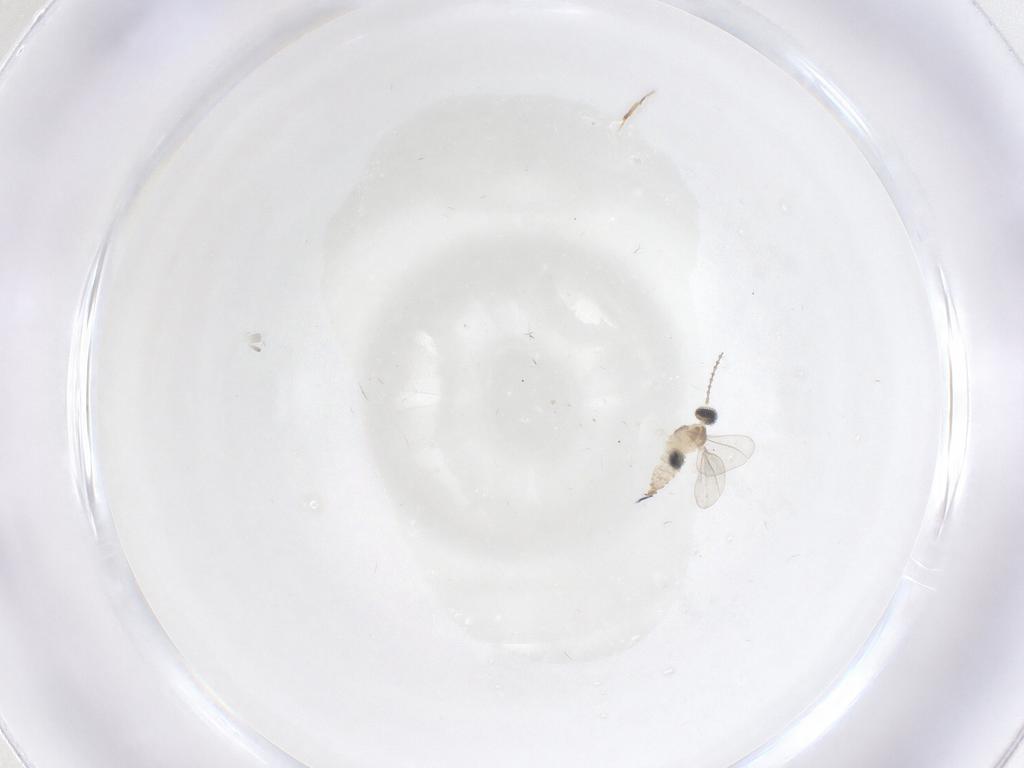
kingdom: Animalia
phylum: Arthropoda
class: Insecta
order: Diptera
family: Cecidomyiidae
